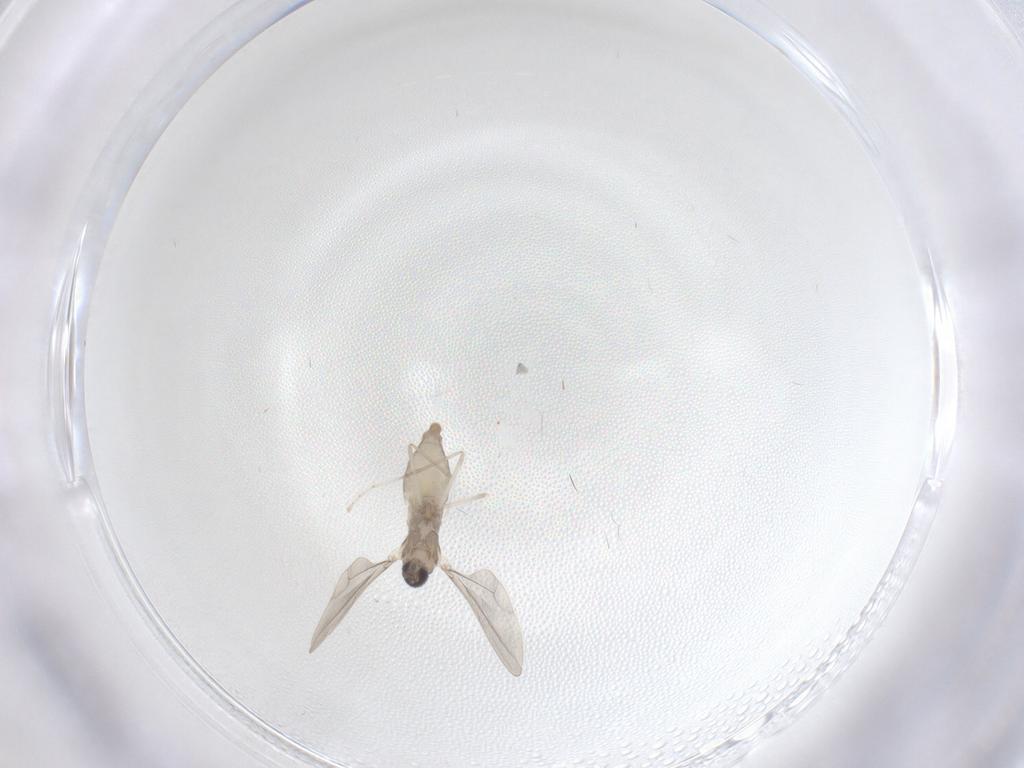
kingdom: Animalia
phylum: Arthropoda
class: Insecta
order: Diptera
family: Cecidomyiidae
